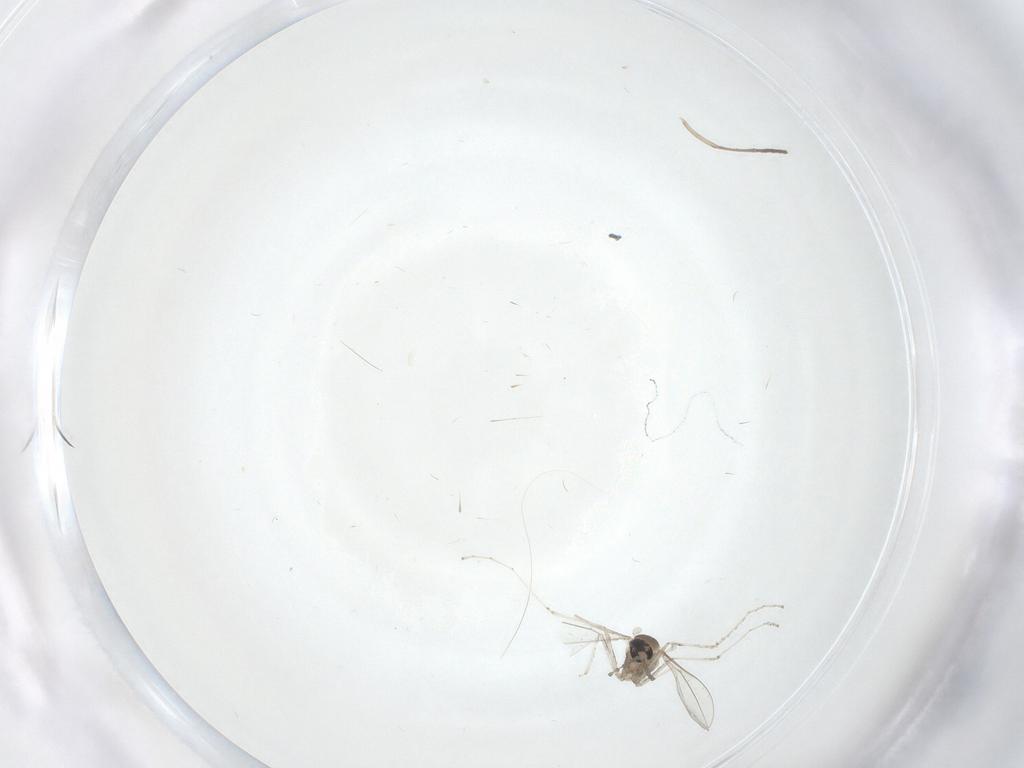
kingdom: Animalia
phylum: Arthropoda
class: Insecta
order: Diptera
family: Cecidomyiidae
